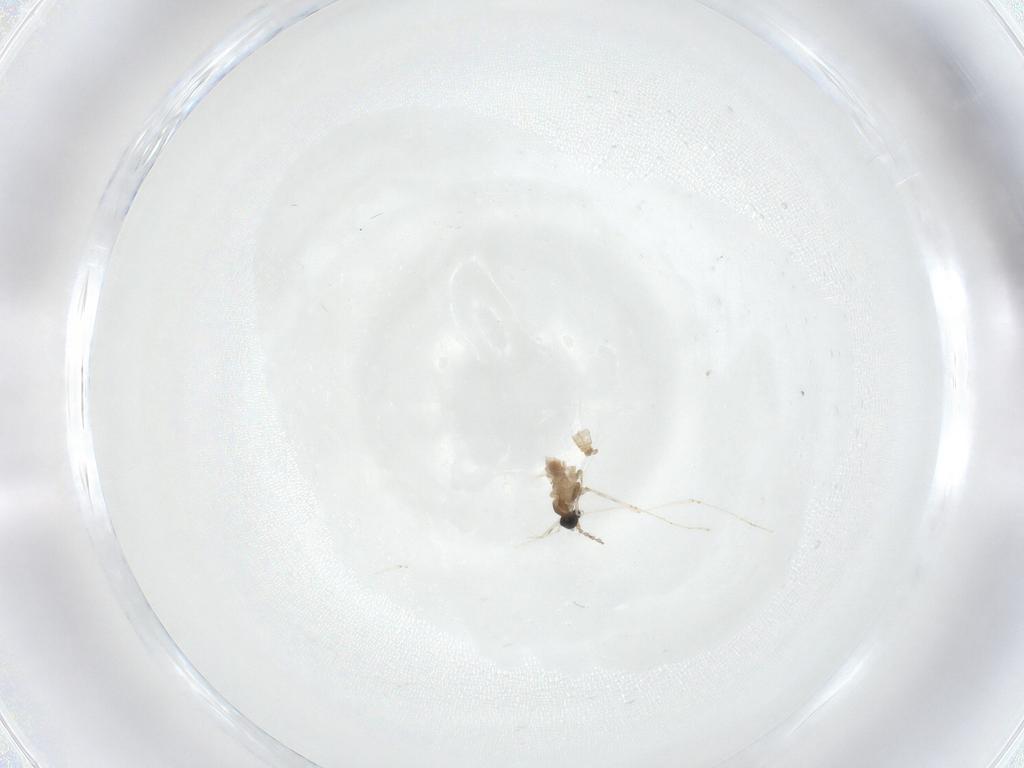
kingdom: Animalia
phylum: Arthropoda
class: Insecta
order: Diptera
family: Cecidomyiidae
